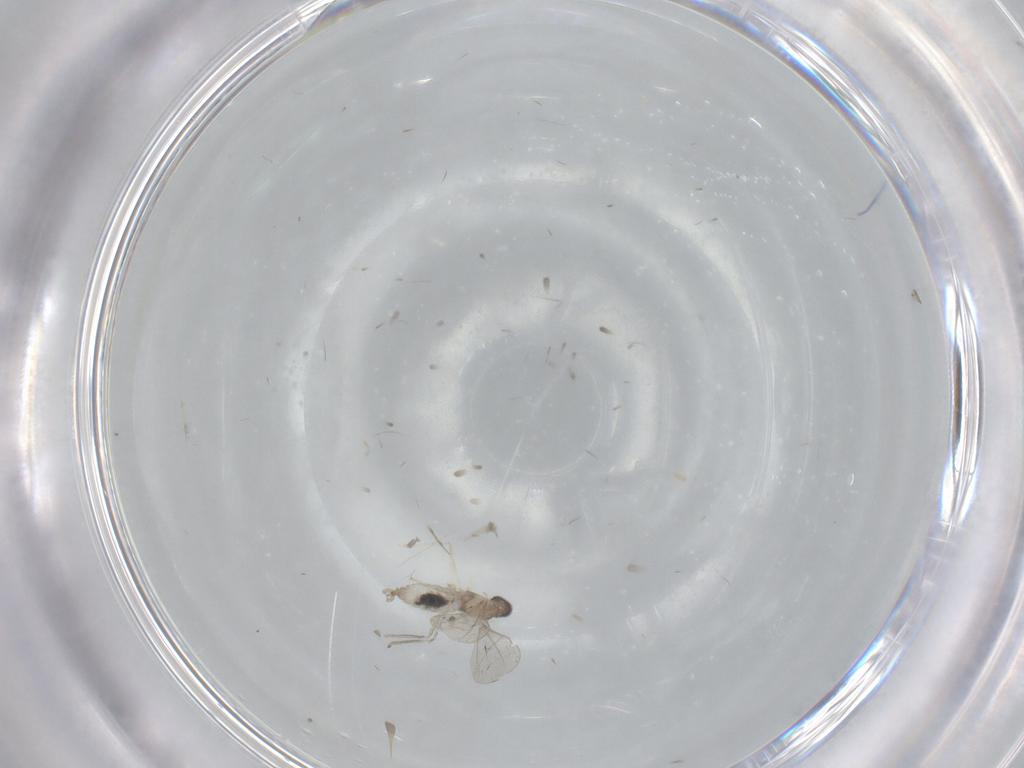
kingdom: Animalia
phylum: Arthropoda
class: Insecta
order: Diptera
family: Cecidomyiidae
